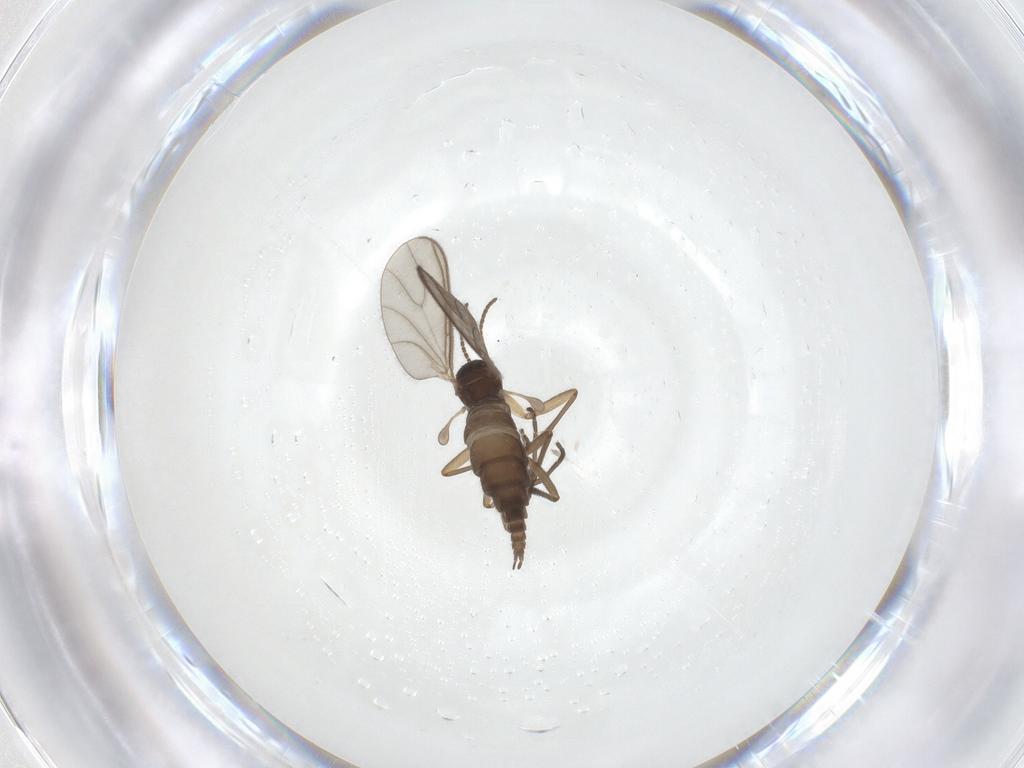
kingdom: Animalia
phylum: Arthropoda
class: Insecta
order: Diptera
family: Sciaridae
